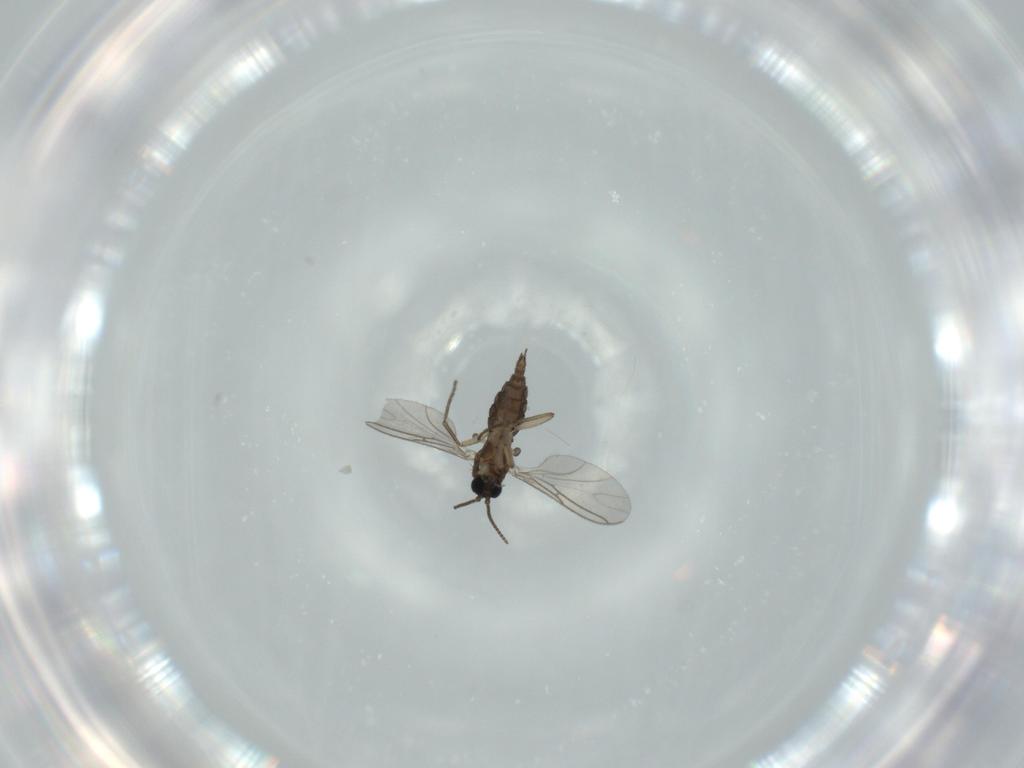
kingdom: Animalia
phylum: Arthropoda
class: Insecta
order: Diptera
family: Sphaeroceridae
